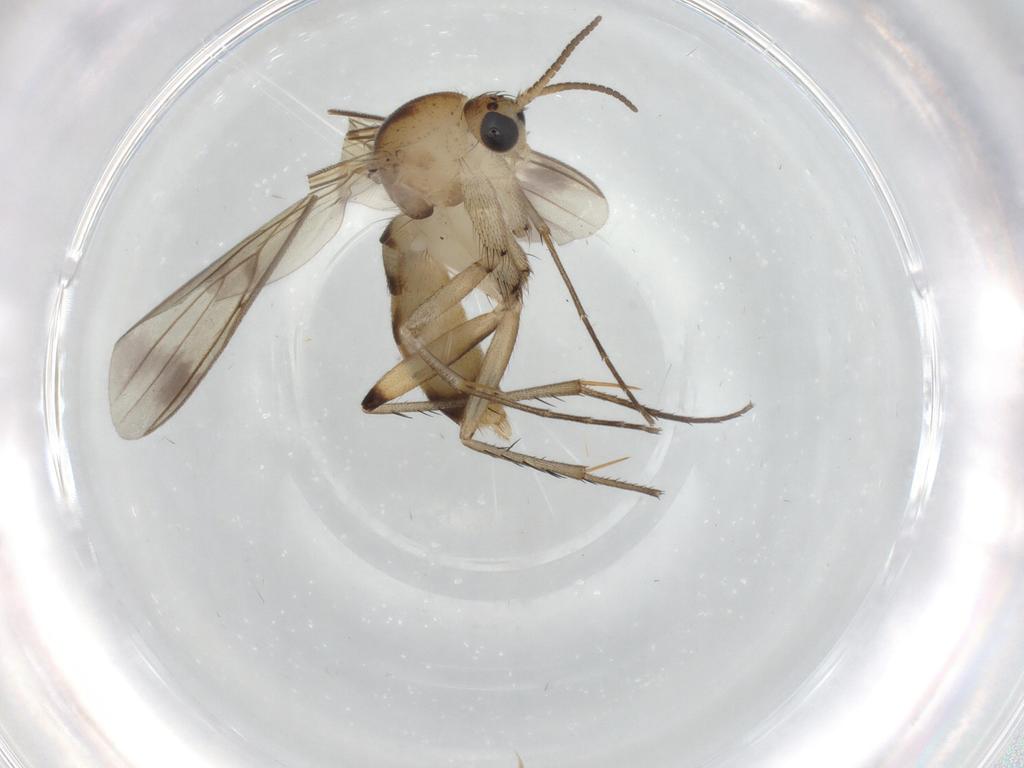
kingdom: Animalia
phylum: Arthropoda
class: Insecta
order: Diptera
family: Mycetophilidae
